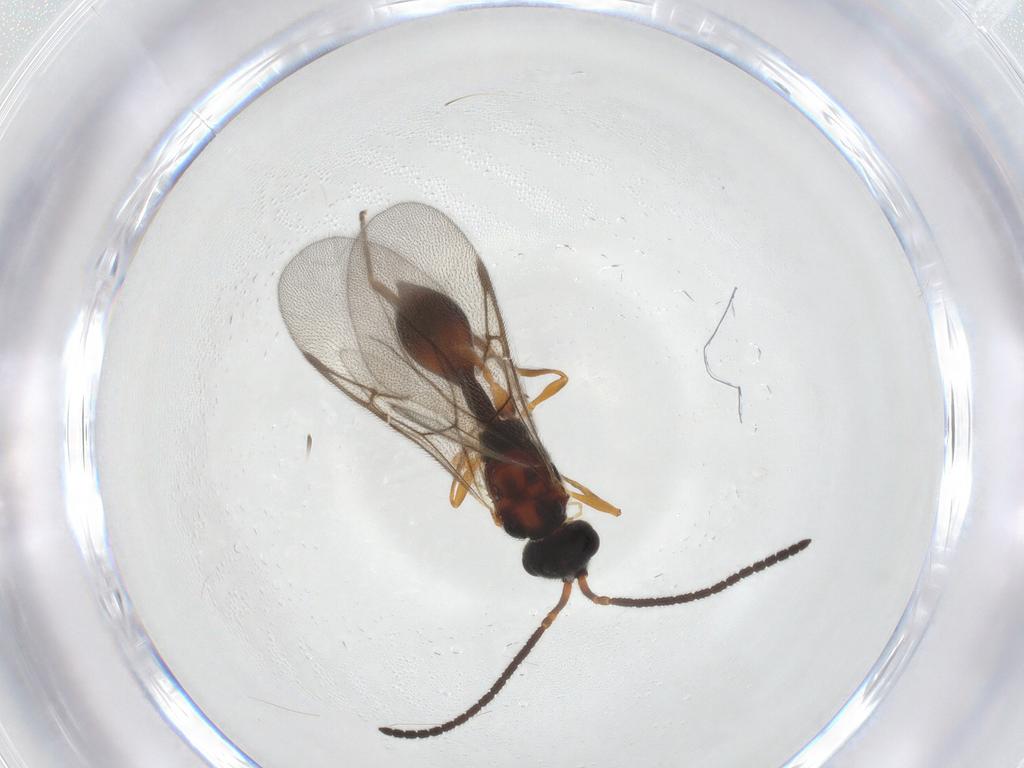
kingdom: Animalia
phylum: Arthropoda
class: Insecta
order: Hymenoptera
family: Diapriidae
